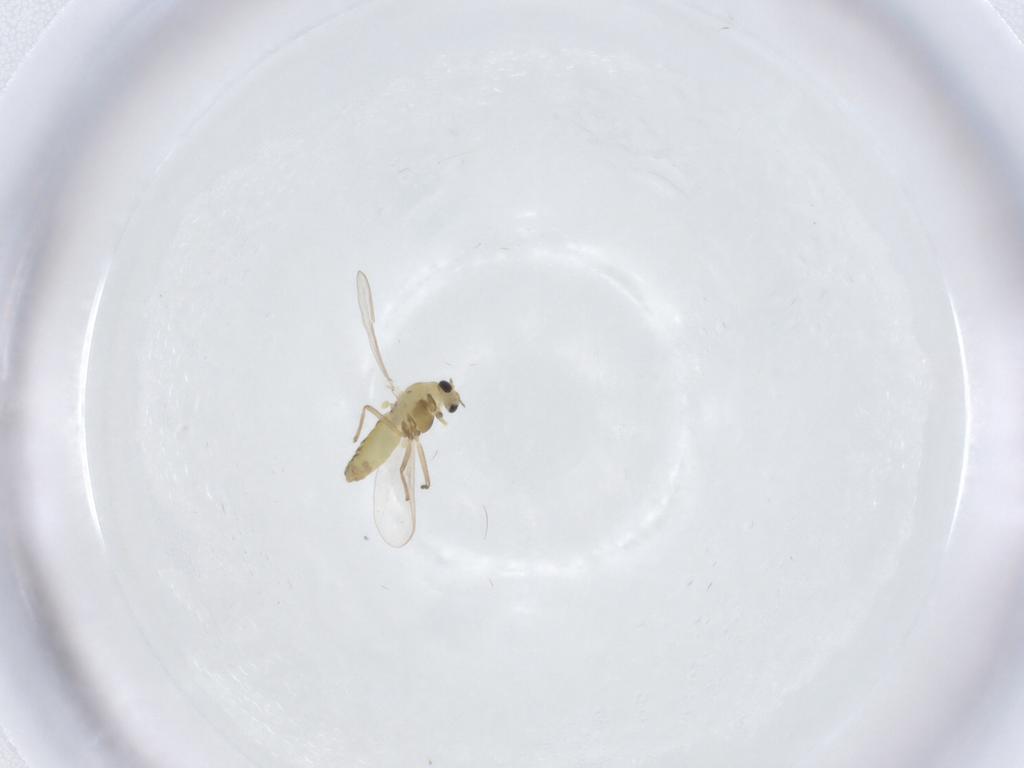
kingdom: Animalia
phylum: Arthropoda
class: Insecta
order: Diptera
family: Chironomidae
